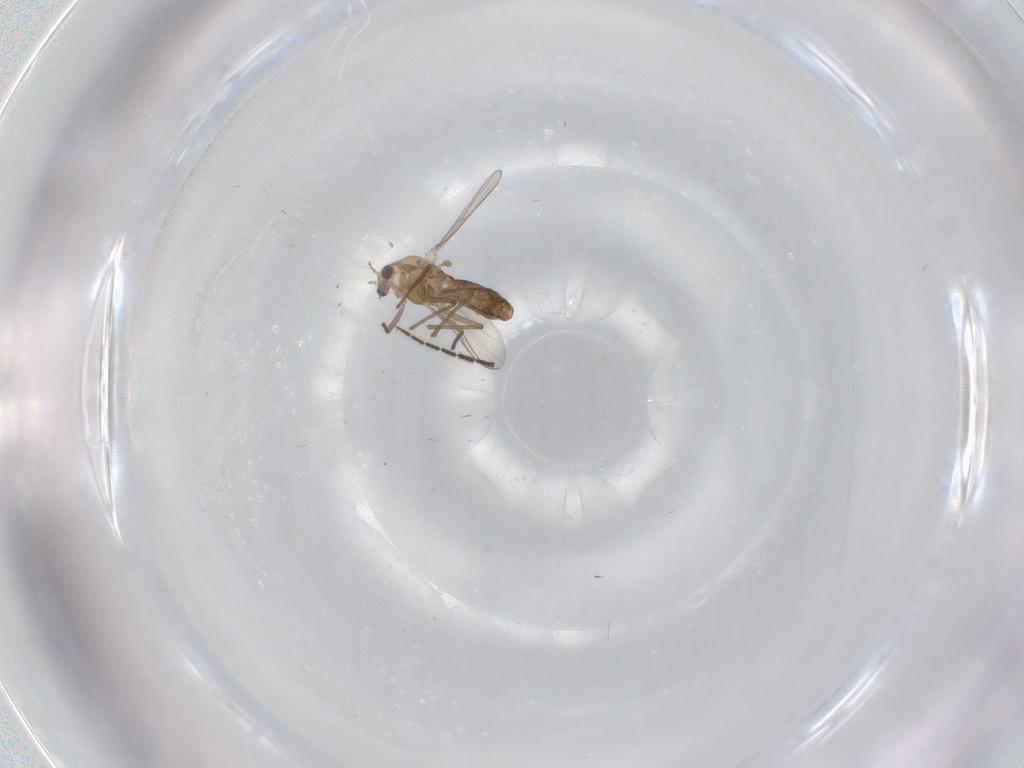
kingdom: Animalia
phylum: Arthropoda
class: Insecta
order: Diptera
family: Chironomidae
